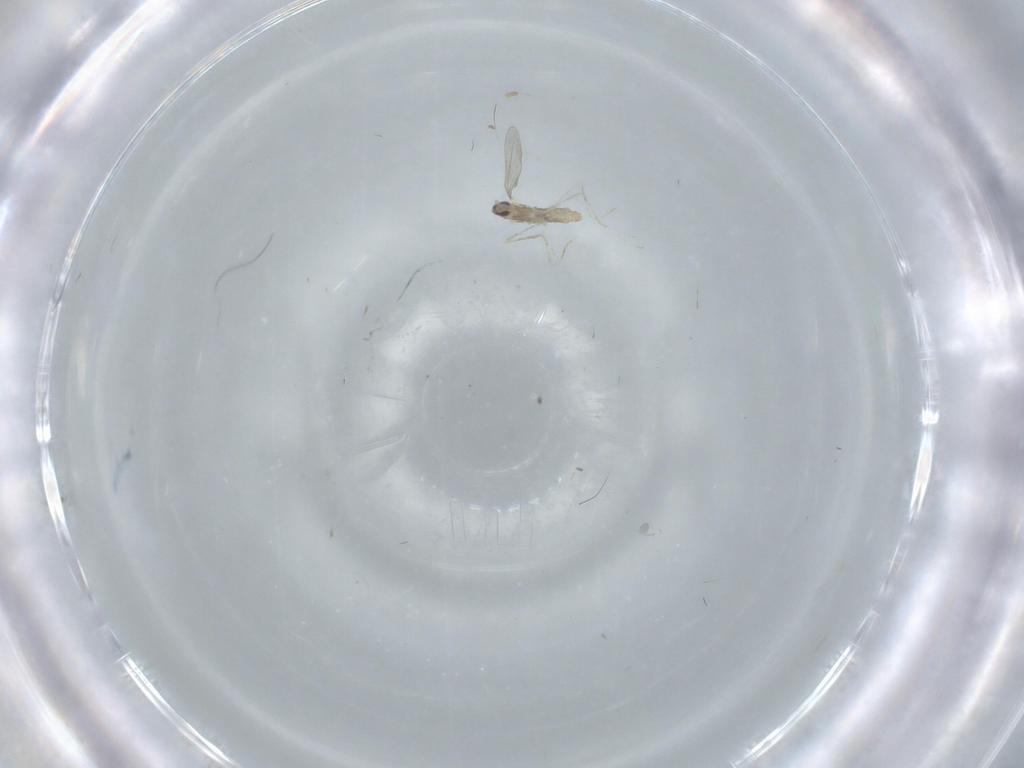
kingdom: Animalia
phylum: Arthropoda
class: Insecta
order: Diptera
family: Cecidomyiidae
